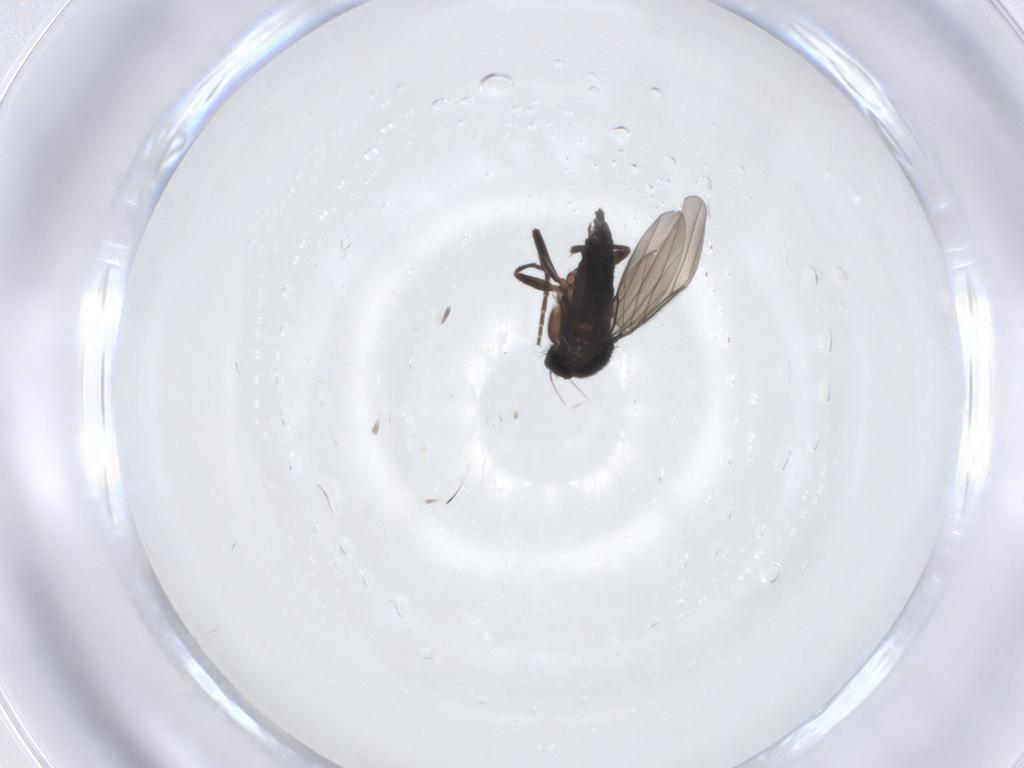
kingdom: Animalia
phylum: Arthropoda
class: Insecta
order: Diptera
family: Phoridae
